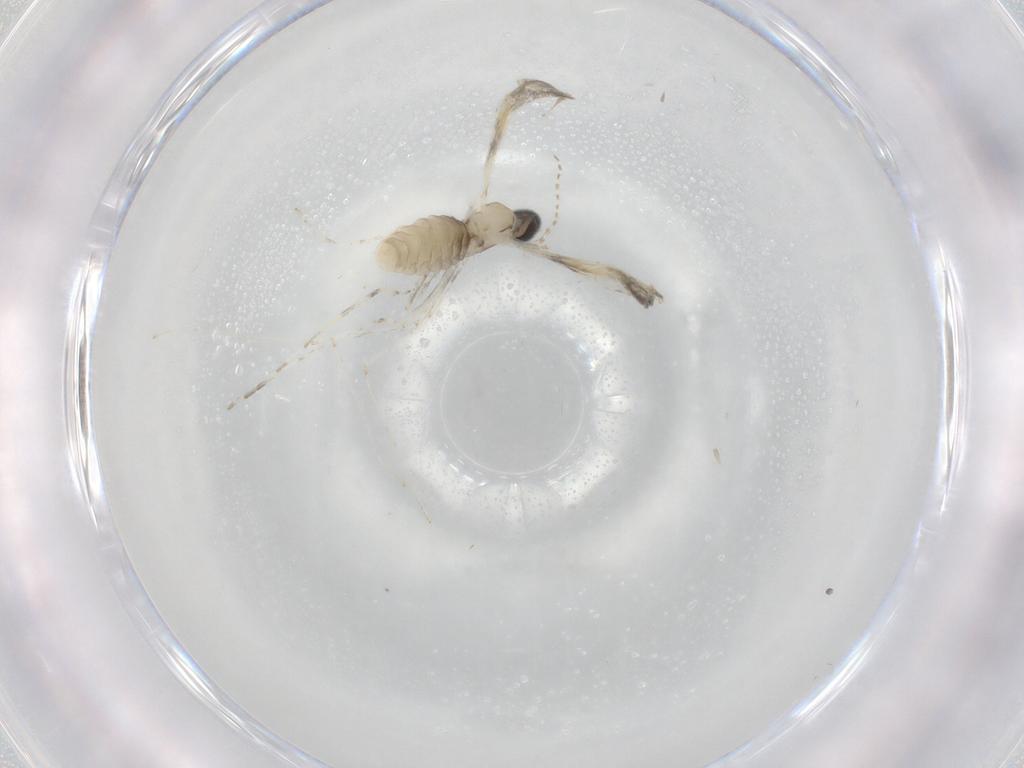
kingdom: Animalia
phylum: Arthropoda
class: Insecta
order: Diptera
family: Cecidomyiidae
